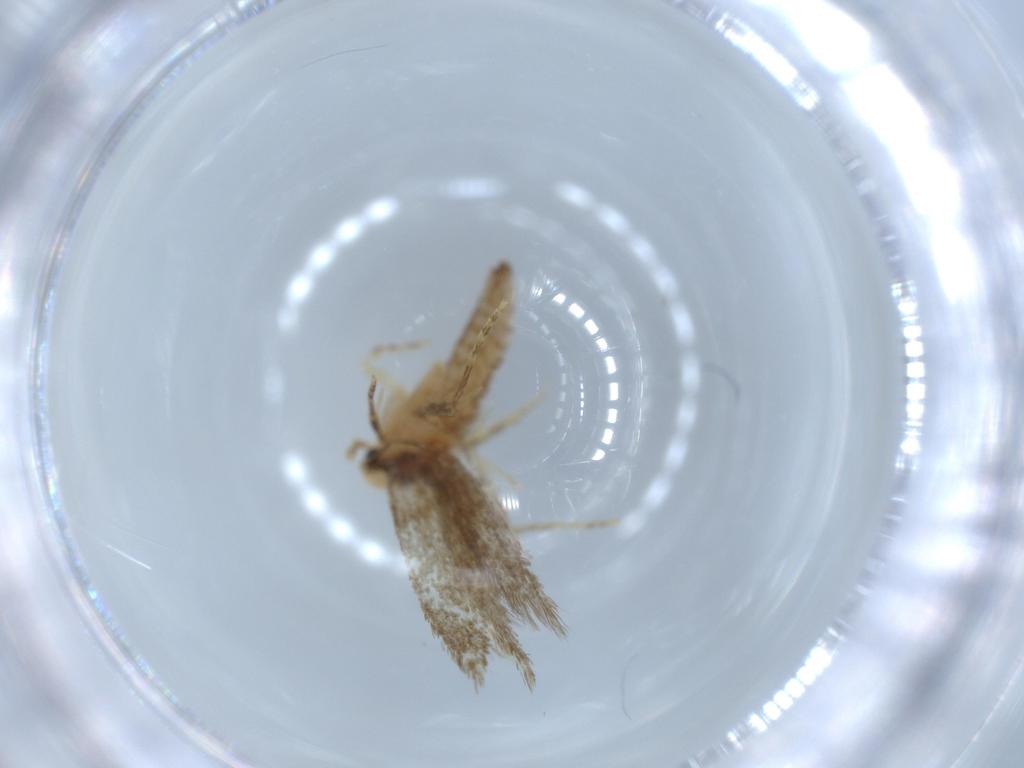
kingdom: Animalia
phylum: Arthropoda
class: Insecta
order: Lepidoptera
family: Tineidae
